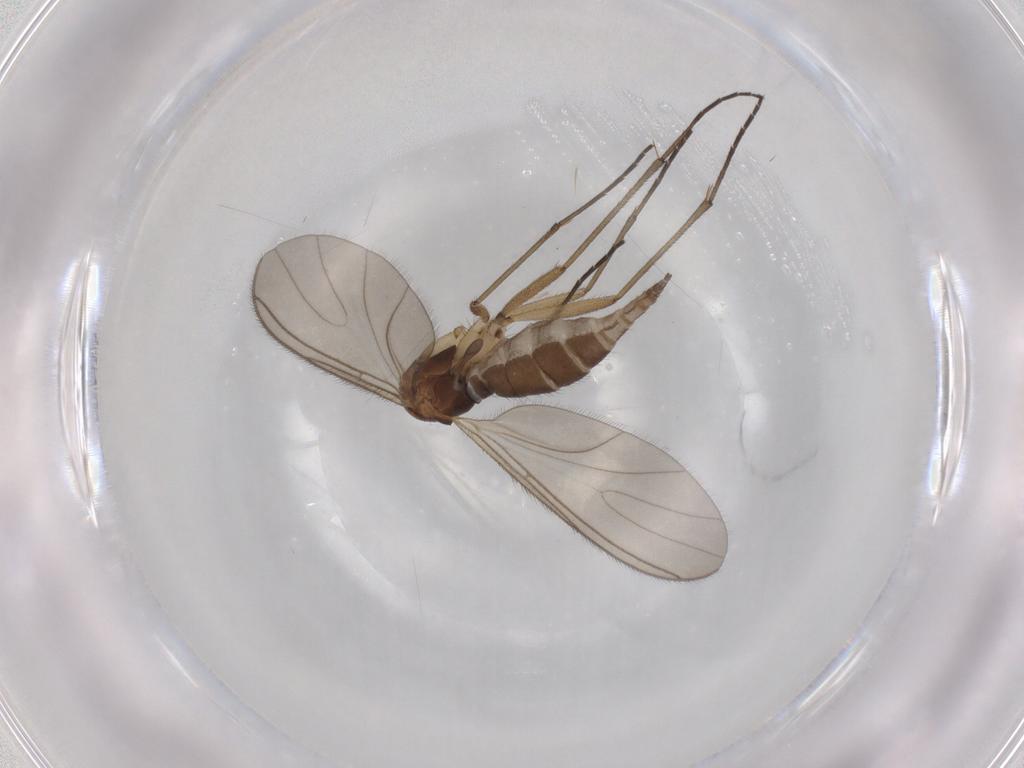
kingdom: Animalia
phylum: Arthropoda
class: Insecta
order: Diptera
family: Sciaridae
